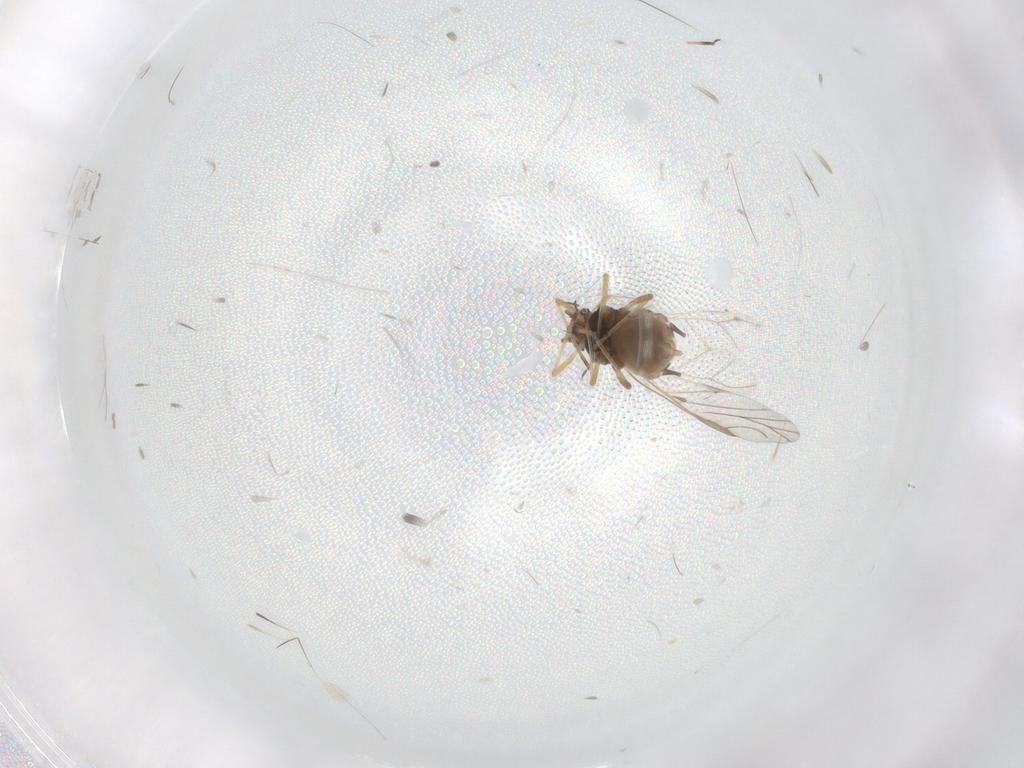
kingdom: Animalia
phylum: Arthropoda
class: Insecta
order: Hemiptera
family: Aphididae
